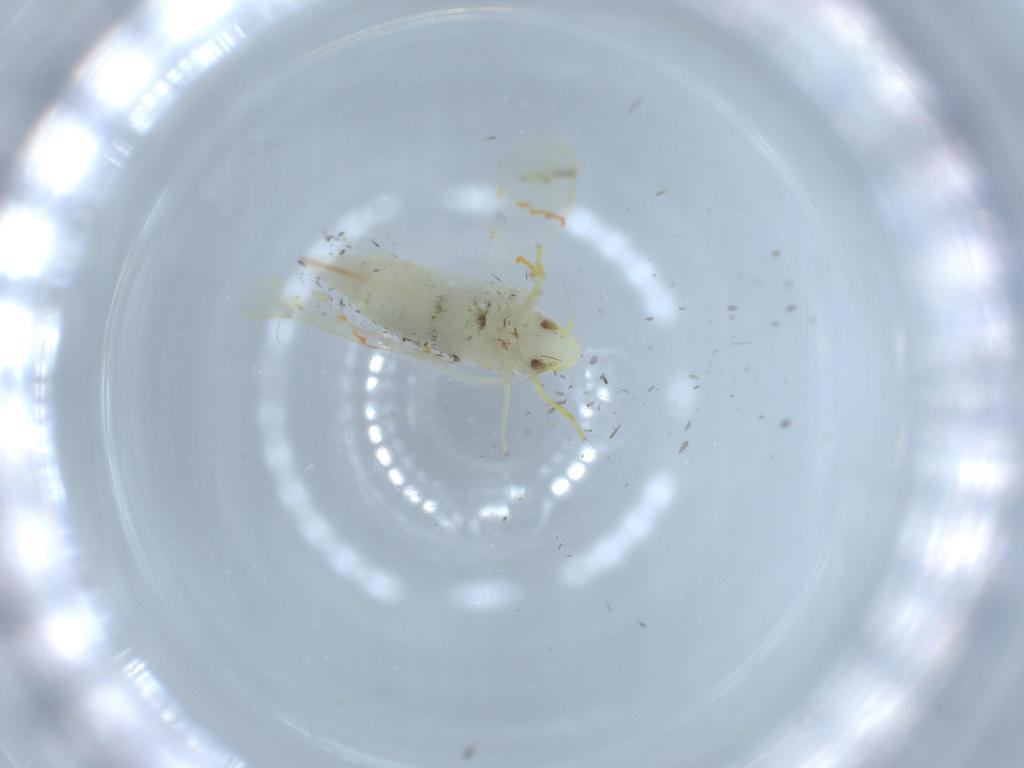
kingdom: Animalia
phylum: Arthropoda
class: Insecta
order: Hemiptera
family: Cicadellidae
